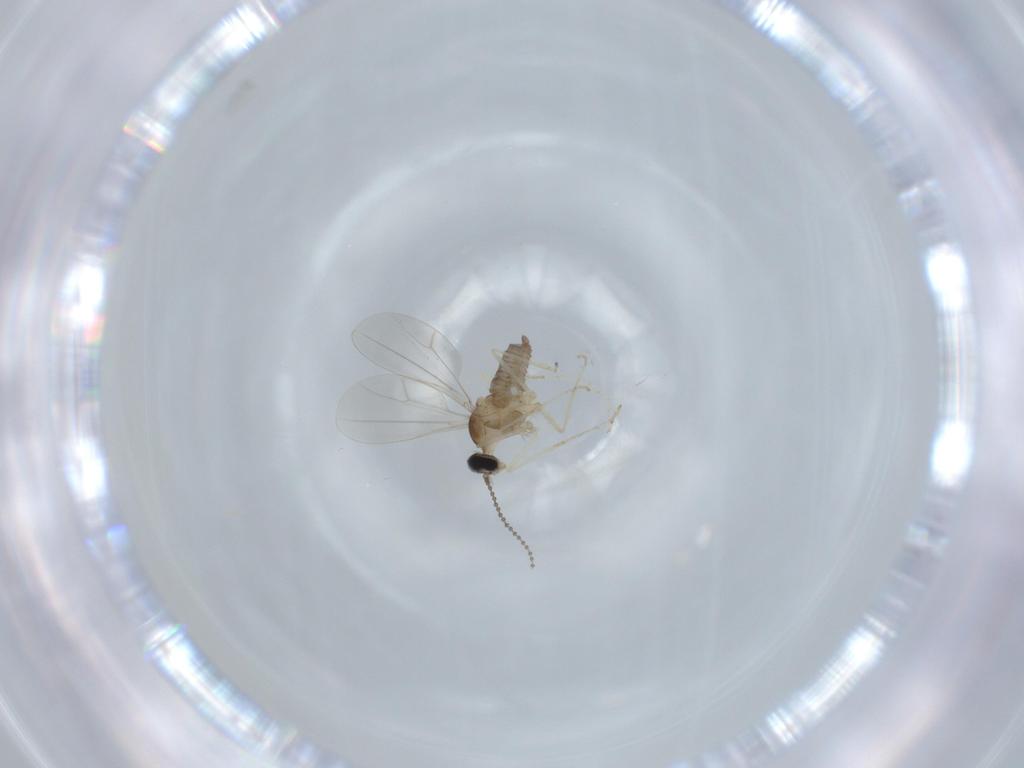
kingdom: Animalia
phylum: Arthropoda
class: Insecta
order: Diptera
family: Cecidomyiidae
